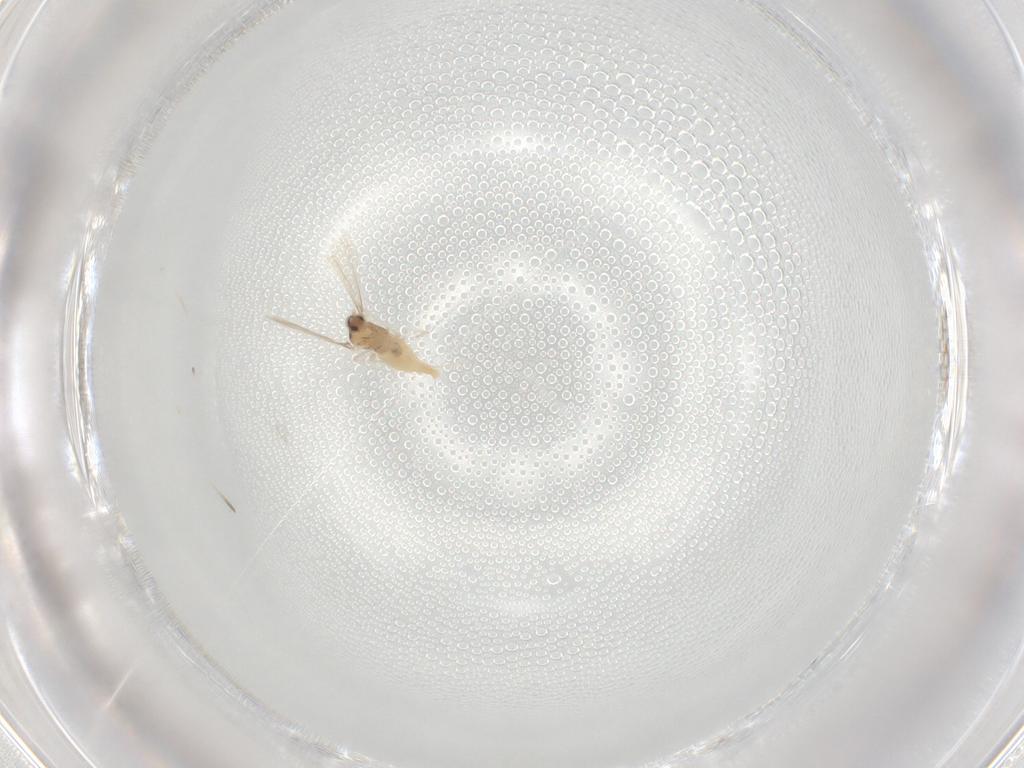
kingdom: Animalia
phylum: Arthropoda
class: Insecta
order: Diptera
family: Cecidomyiidae
